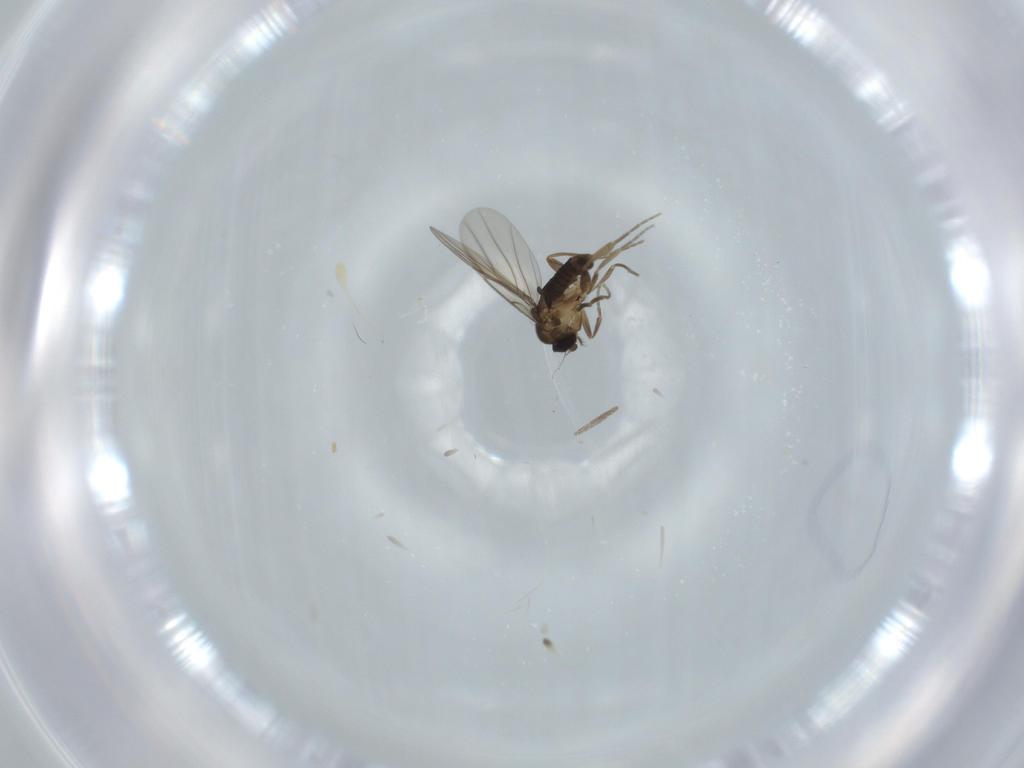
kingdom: Animalia
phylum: Arthropoda
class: Insecta
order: Diptera
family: Phoridae
